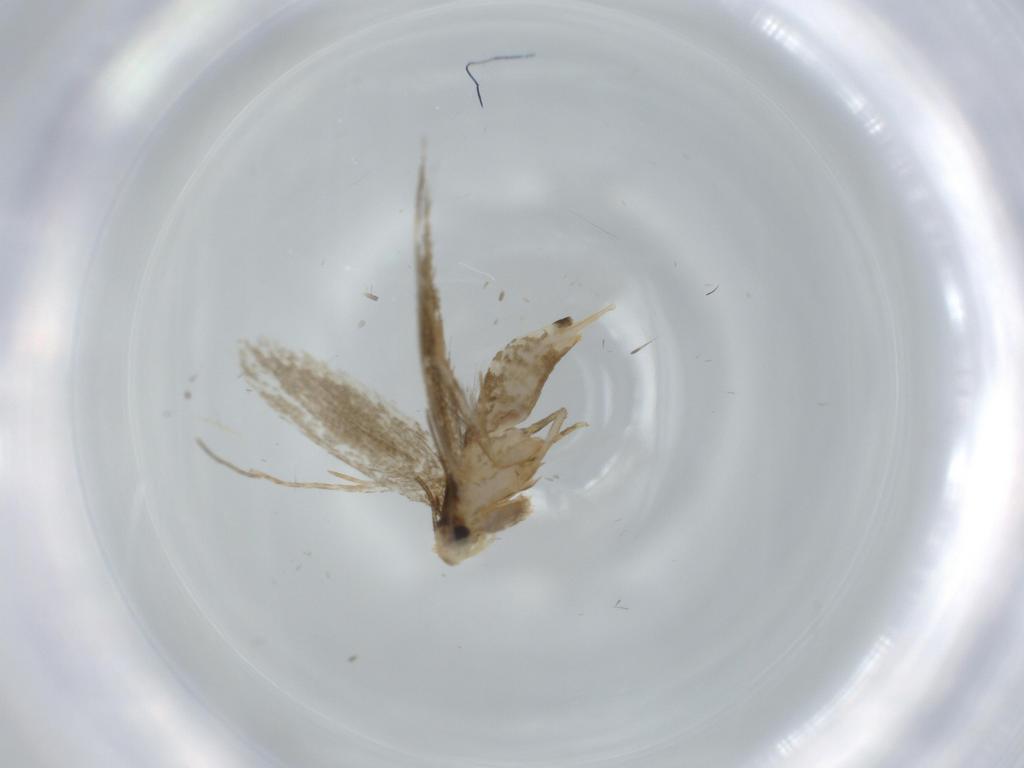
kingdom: Animalia
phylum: Arthropoda
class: Insecta
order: Lepidoptera
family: Tineidae
